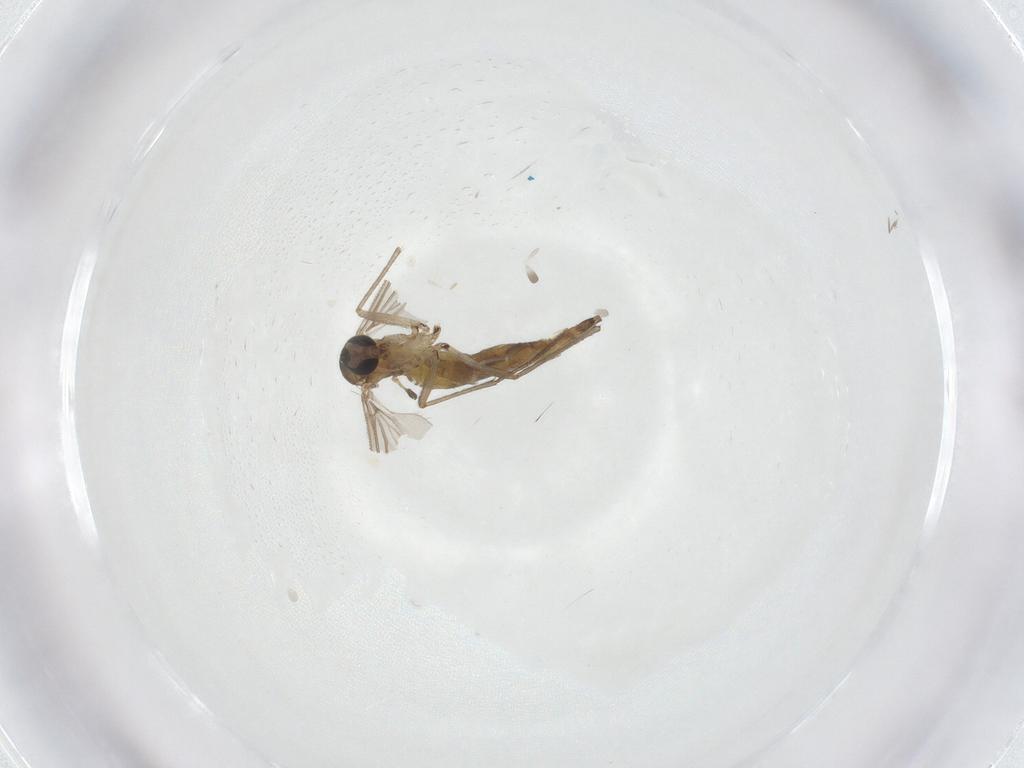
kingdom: Animalia
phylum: Arthropoda
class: Insecta
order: Diptera
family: Sciaridae
